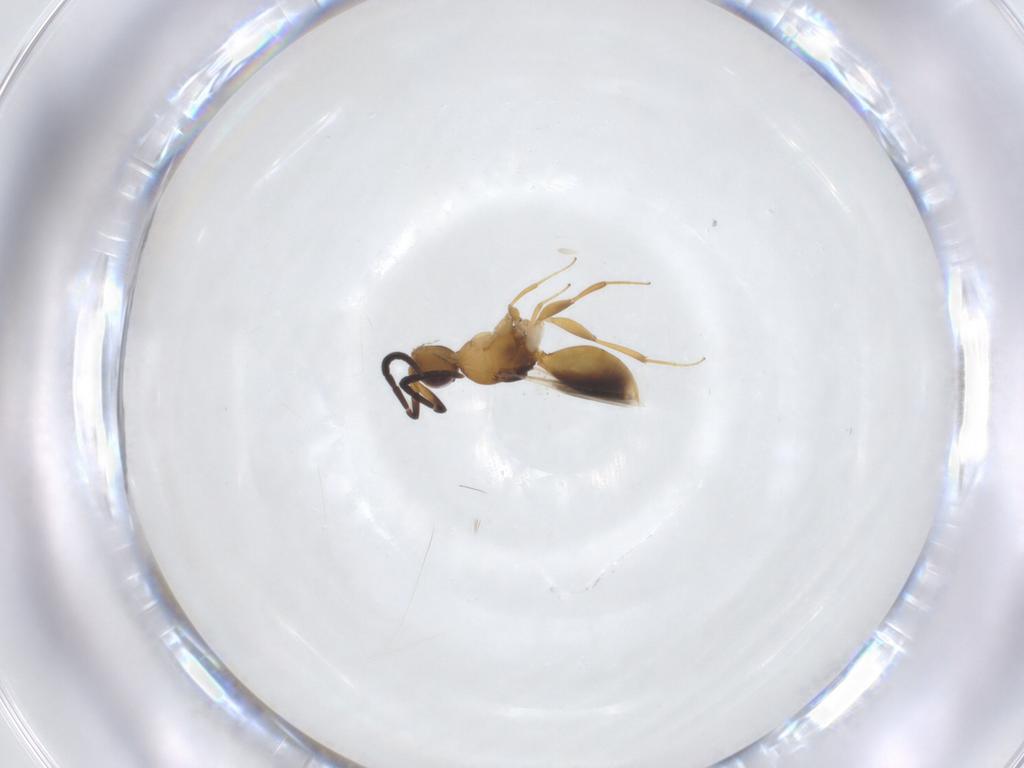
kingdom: Animalia
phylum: Arthropoda
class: Insecta
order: Hymenoptera
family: Megaspilidae
